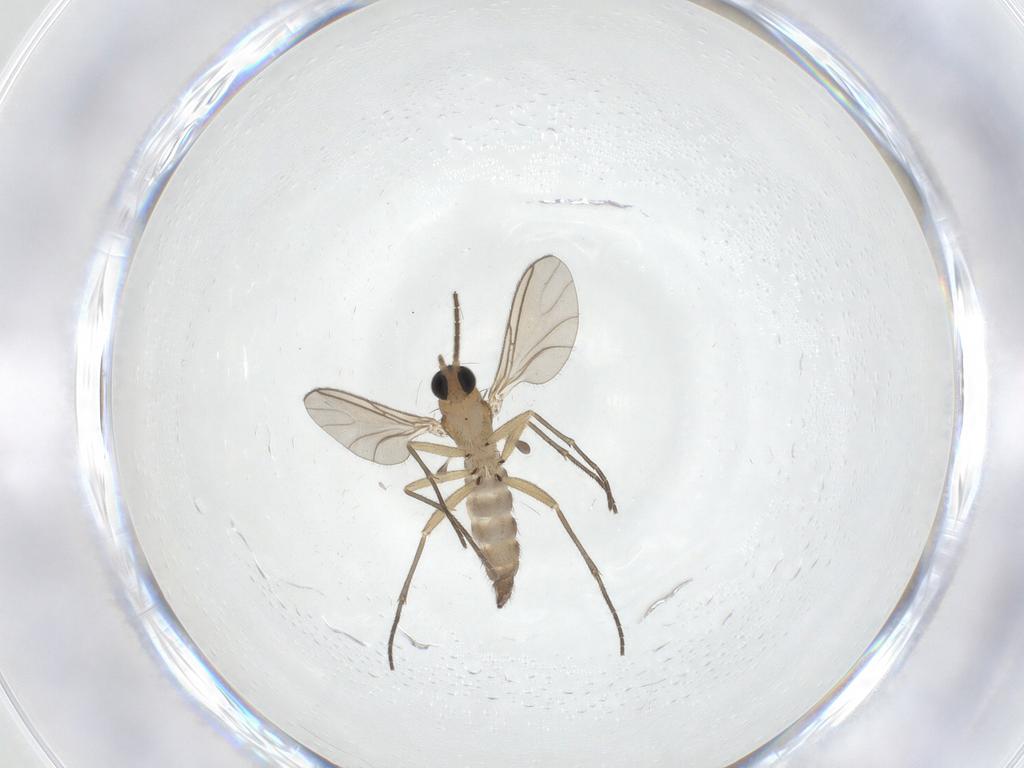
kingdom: Animalia
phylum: Arthropoda
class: Insecta
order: Diptera
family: Sciaridae
